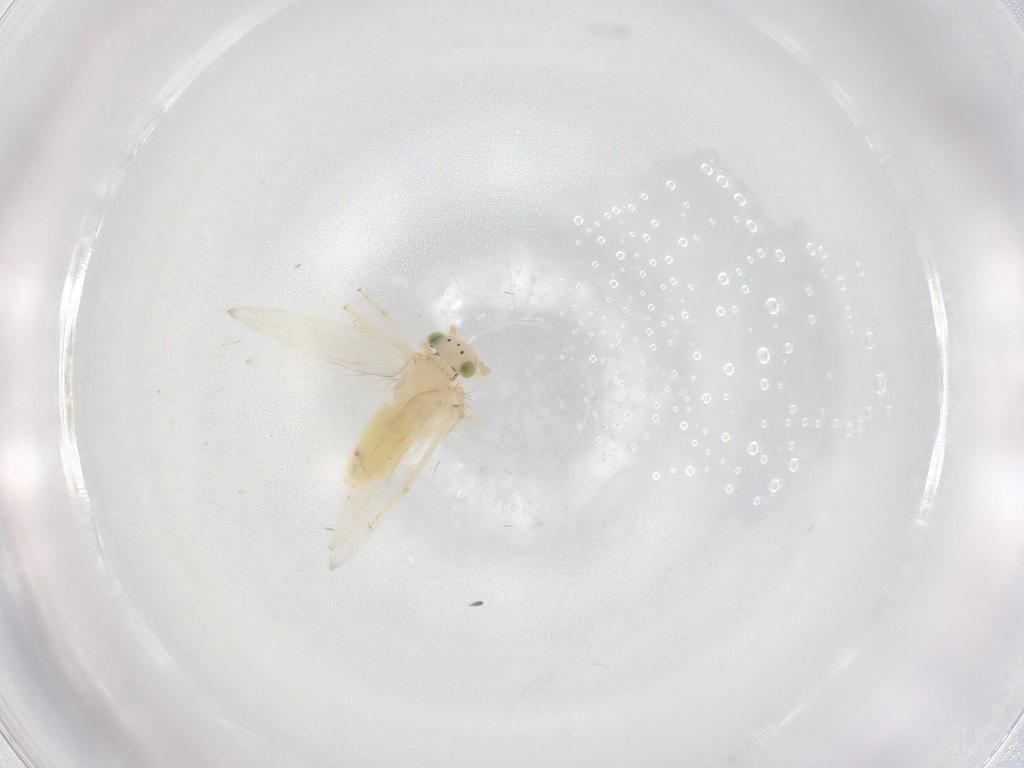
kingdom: Animalia
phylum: Arthropoda
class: Insecta
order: Psocodea
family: Lepidopsocidae
